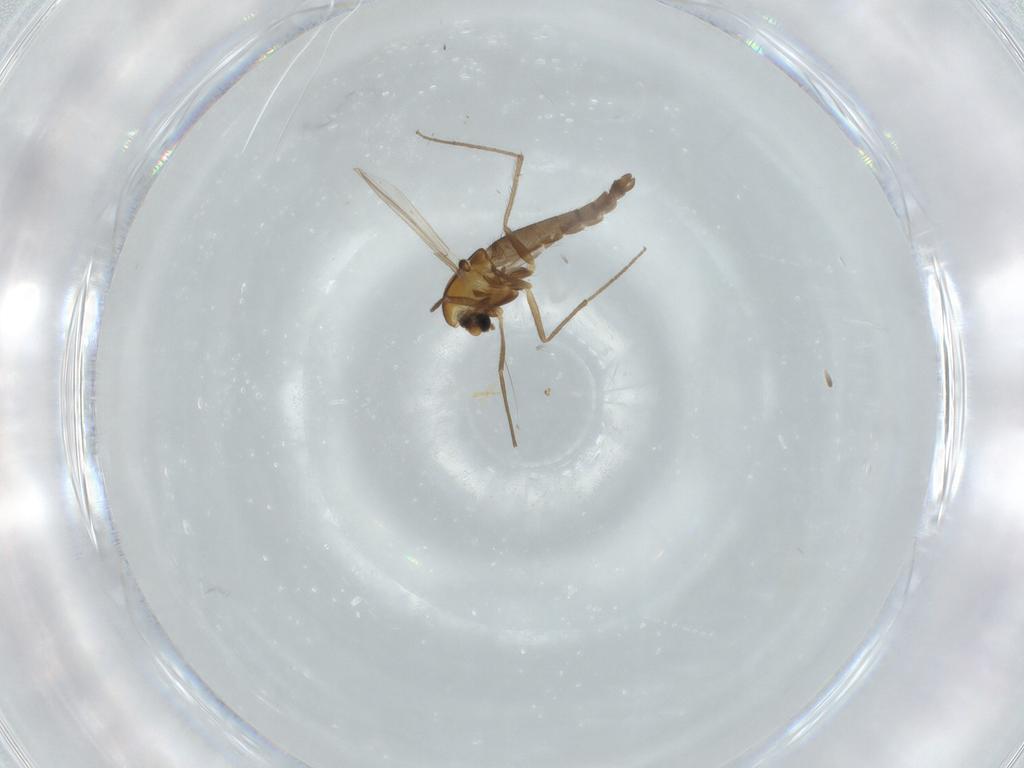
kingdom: Animalia
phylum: Arthropoda
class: Insecta
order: Diptera
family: Chironomidae
